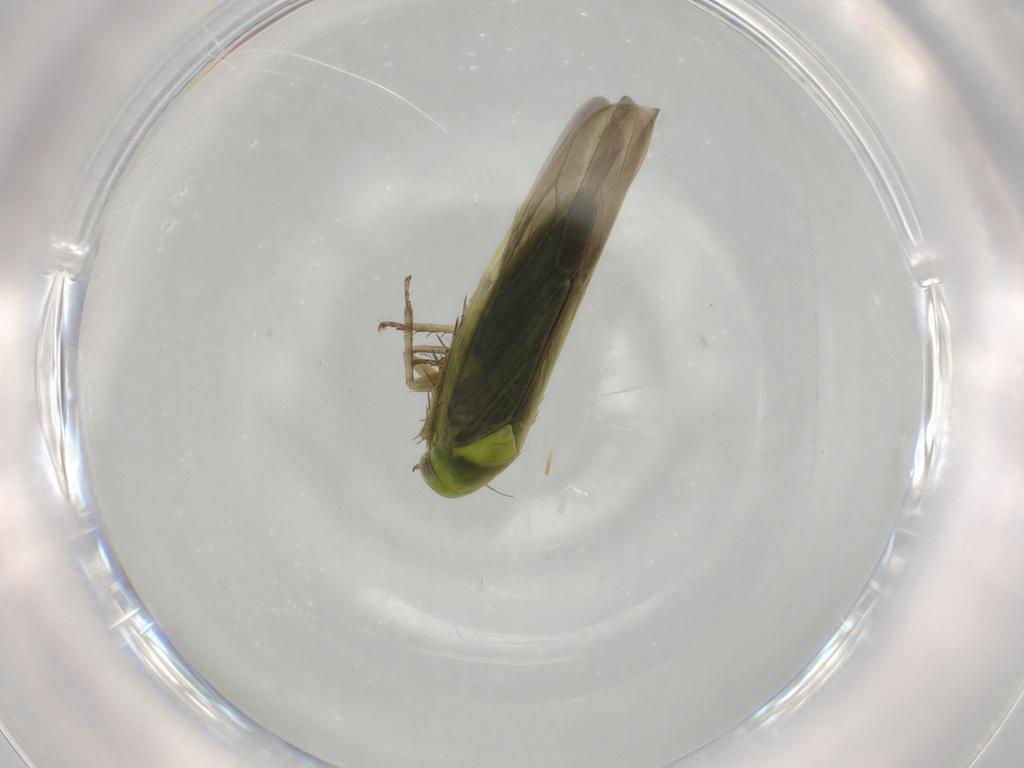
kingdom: Animalia
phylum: Arthropoda
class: Insecta
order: Hemiptera
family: Cicadellidae
